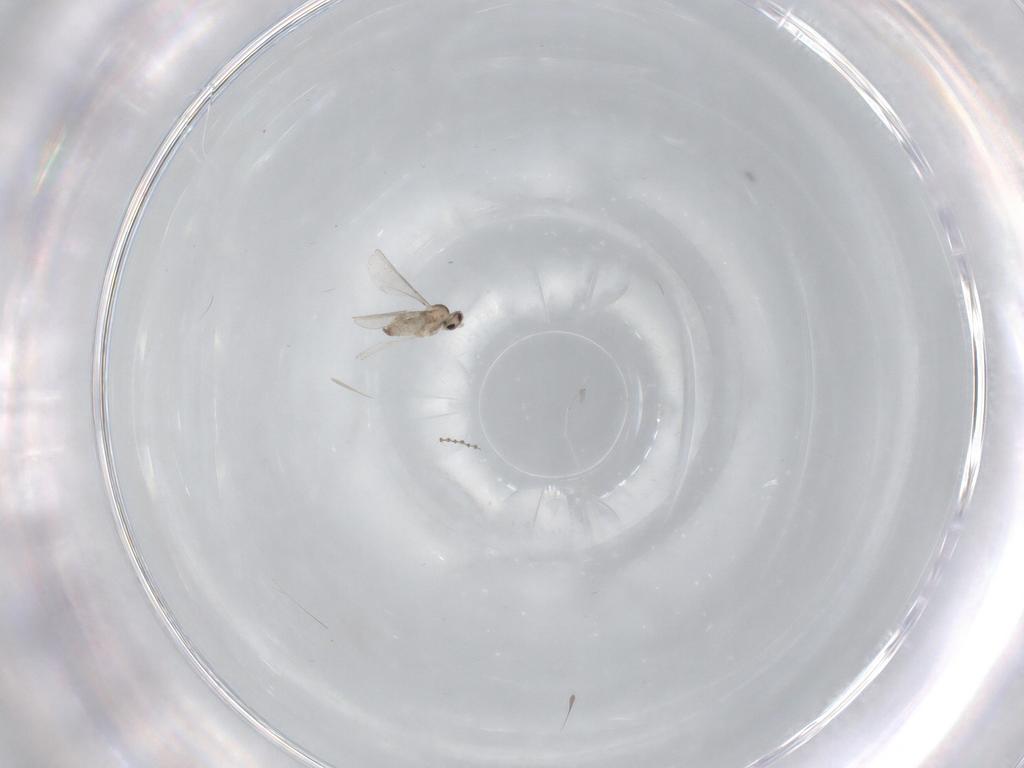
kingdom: Animalia
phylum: Arthropoda
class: Insecta
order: Diptera
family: Cecidomyiidae
